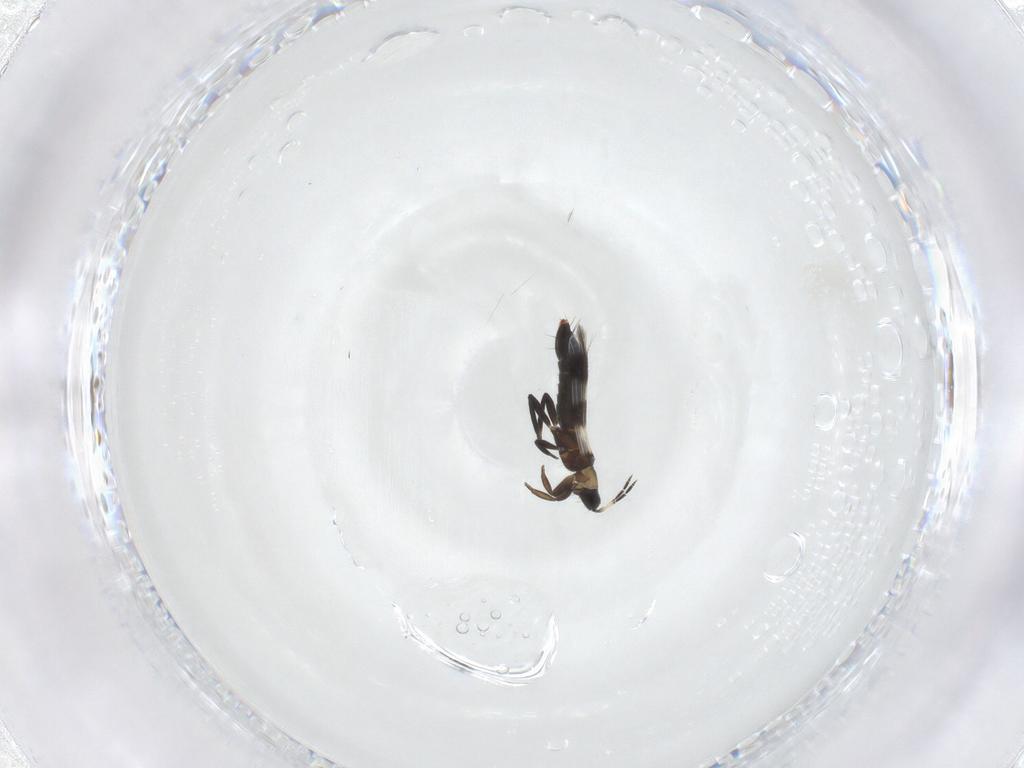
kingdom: Animalia
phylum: Arthropoda
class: Insecta
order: Thysanoptera
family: Aeolothripidae
